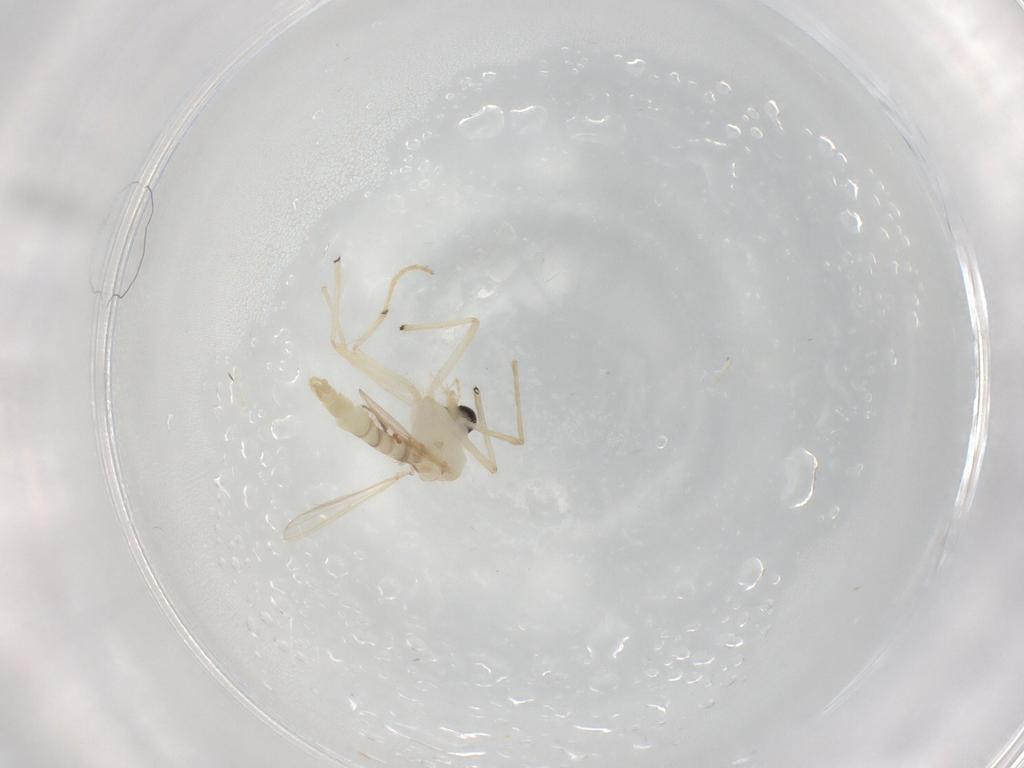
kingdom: Animalia
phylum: Arthropoda
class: Insecta
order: Diptera
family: Chironomidae
